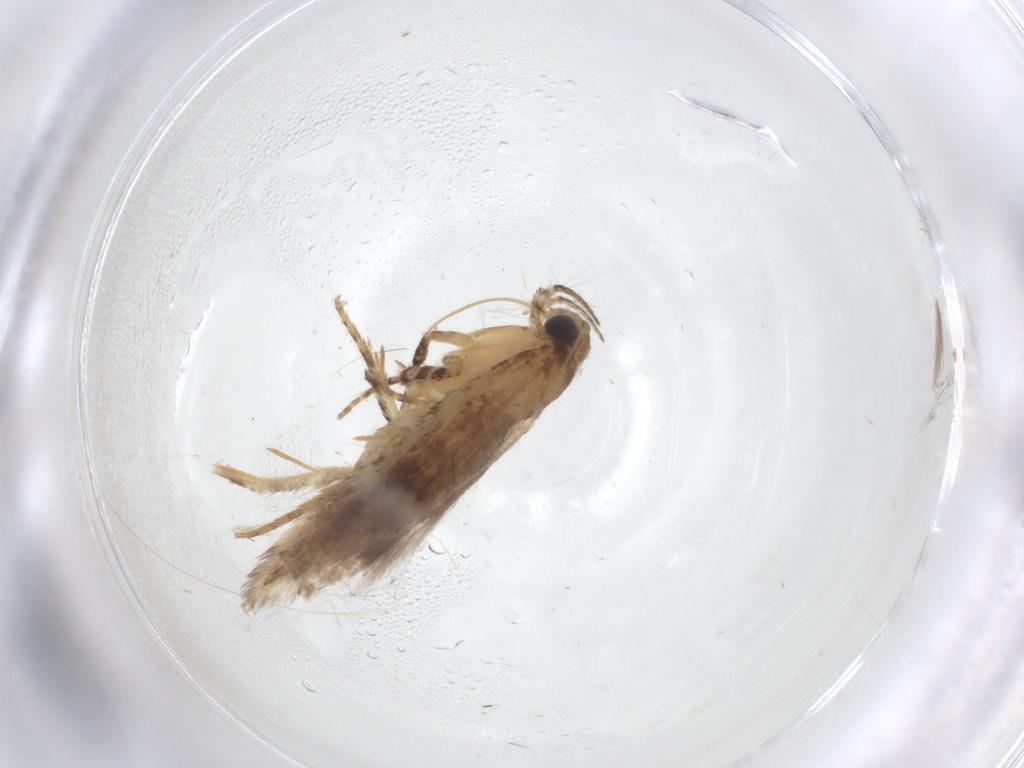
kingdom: Animalia
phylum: Arthropoda
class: Insecta
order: Lepidoptera
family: Gelechiidae
